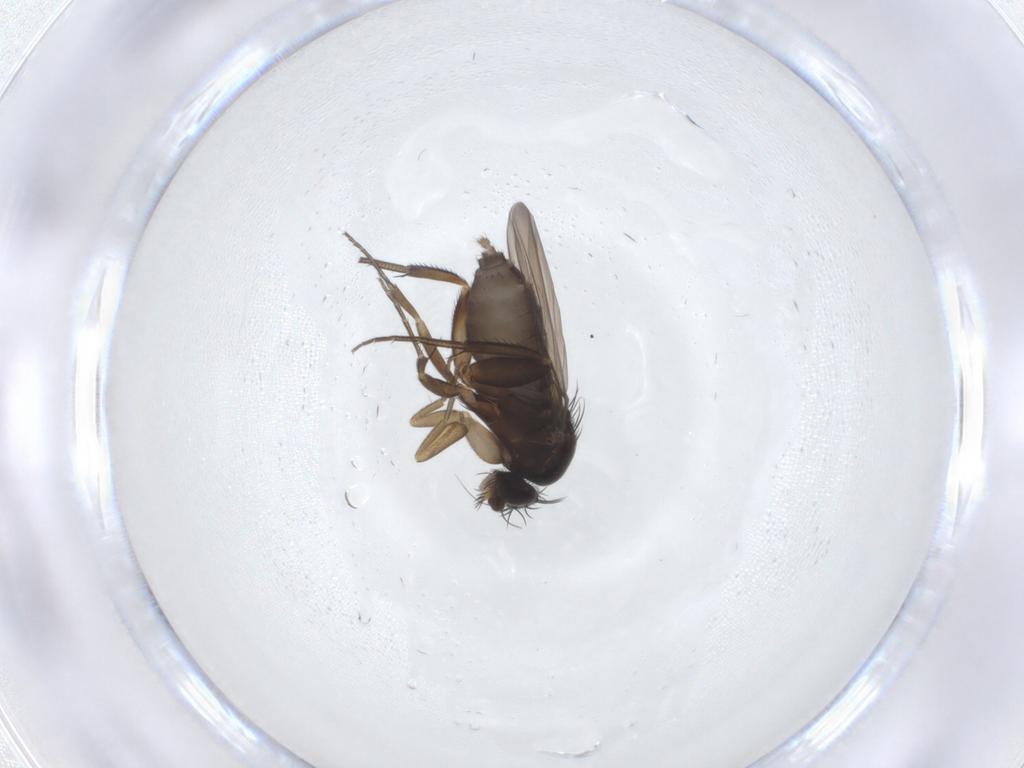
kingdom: Animalia
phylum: Arthropoda
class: Insecta
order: Diptera
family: Phoridae
